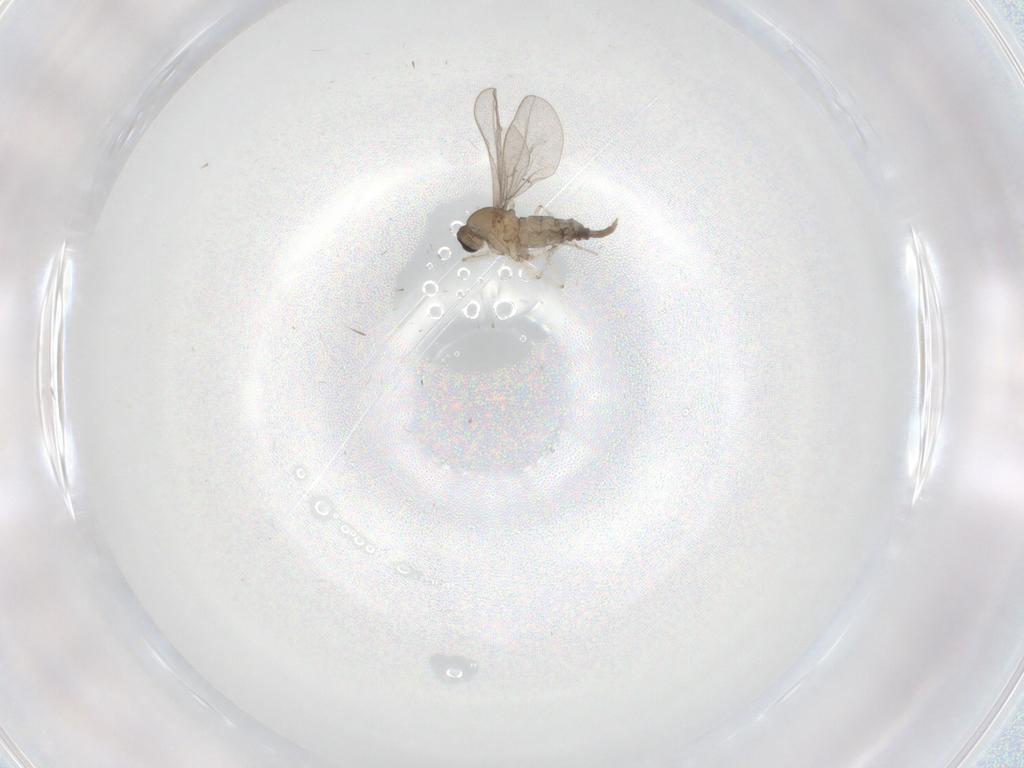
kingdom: Animalia
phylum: Arthropoda
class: Insecta
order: Diptera
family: Cecidomyiidae
